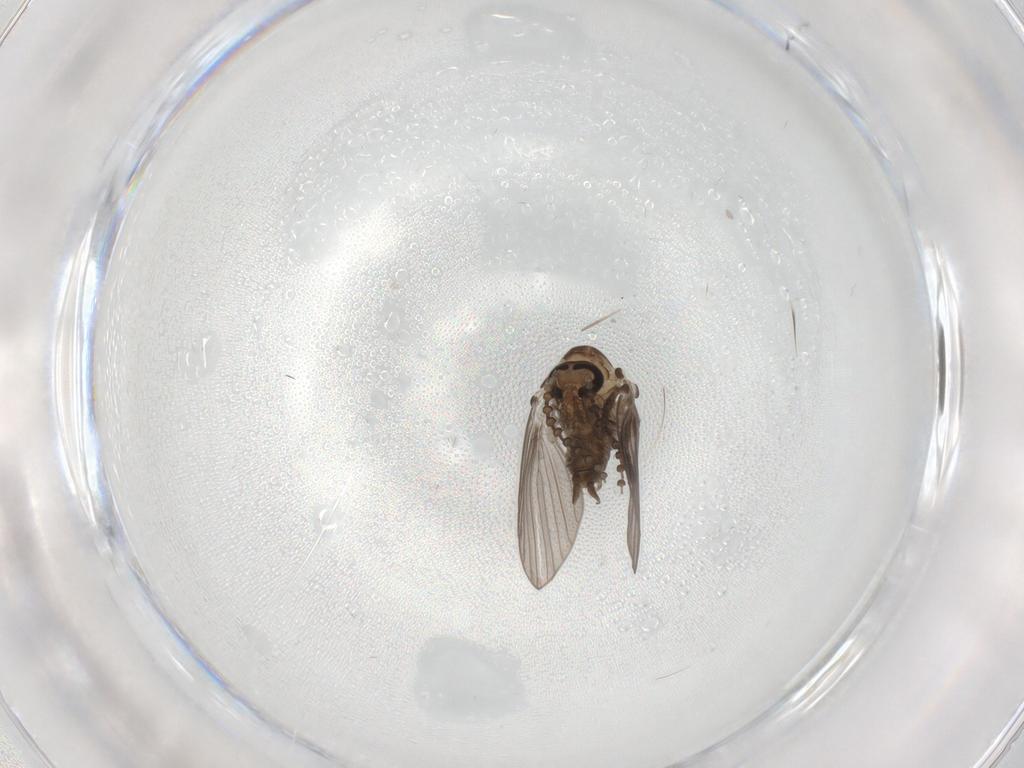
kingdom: Animalia
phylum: Arthropoda
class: Insecta
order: Diptera
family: Psychodidae
